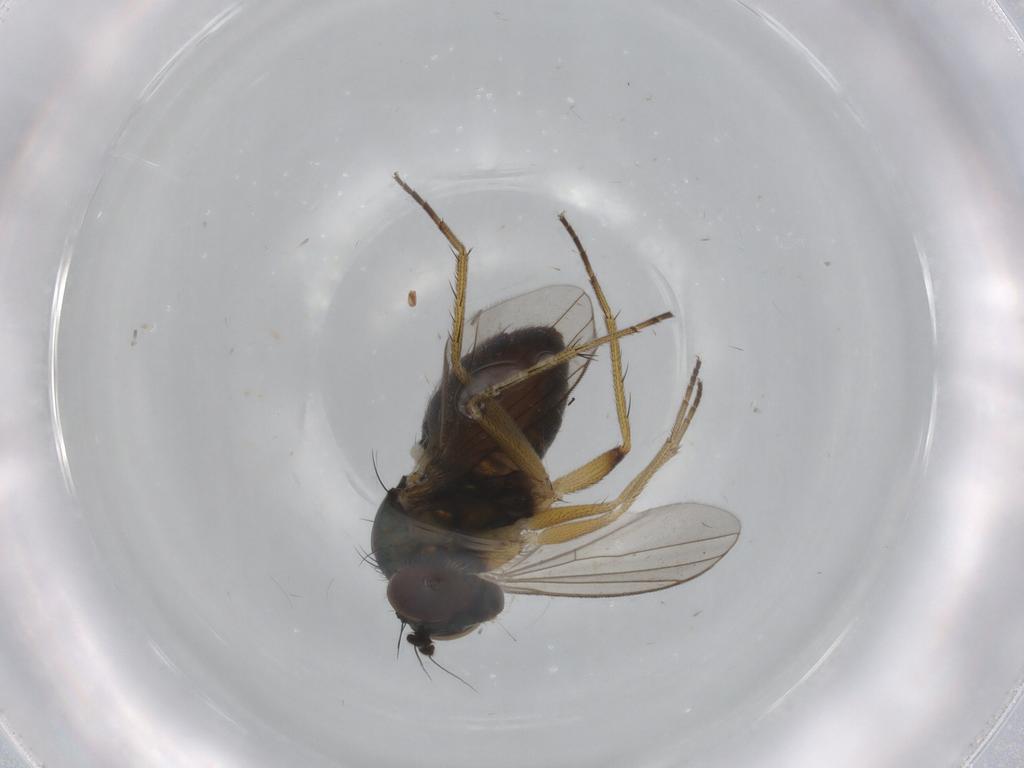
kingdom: Animalia
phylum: Arthropoda
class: Insecta
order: Diptera
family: Dolichopodidae
